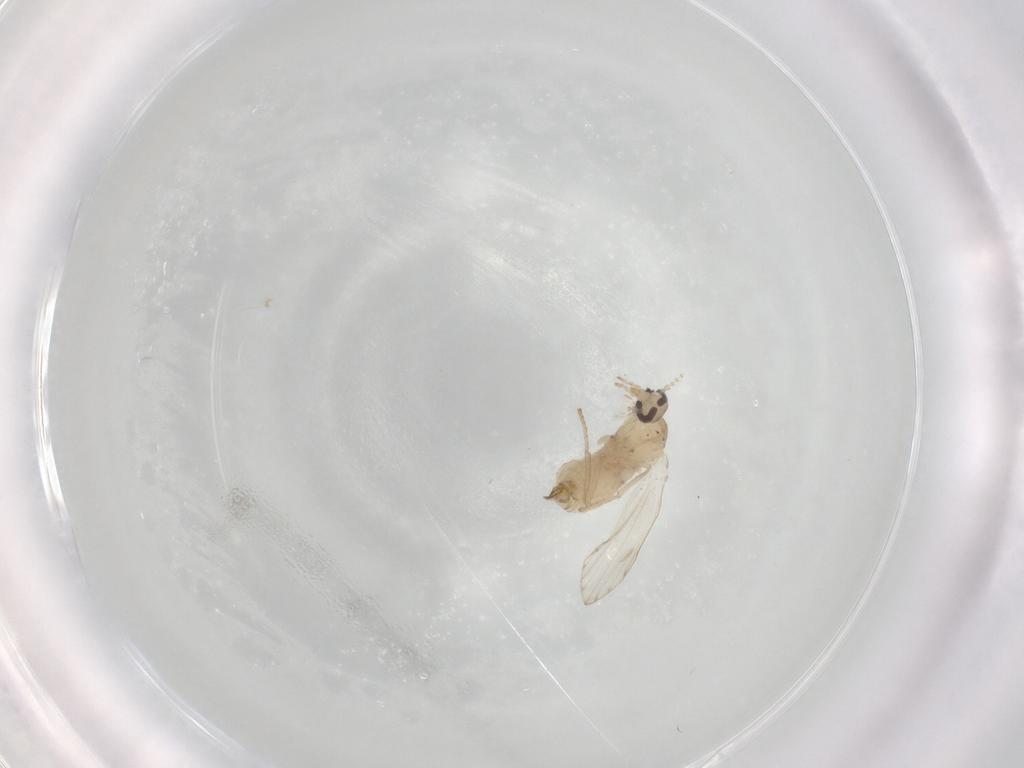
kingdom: Animalia
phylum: Arthropoda
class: Insecta
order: Diptera
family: Psychodidae
